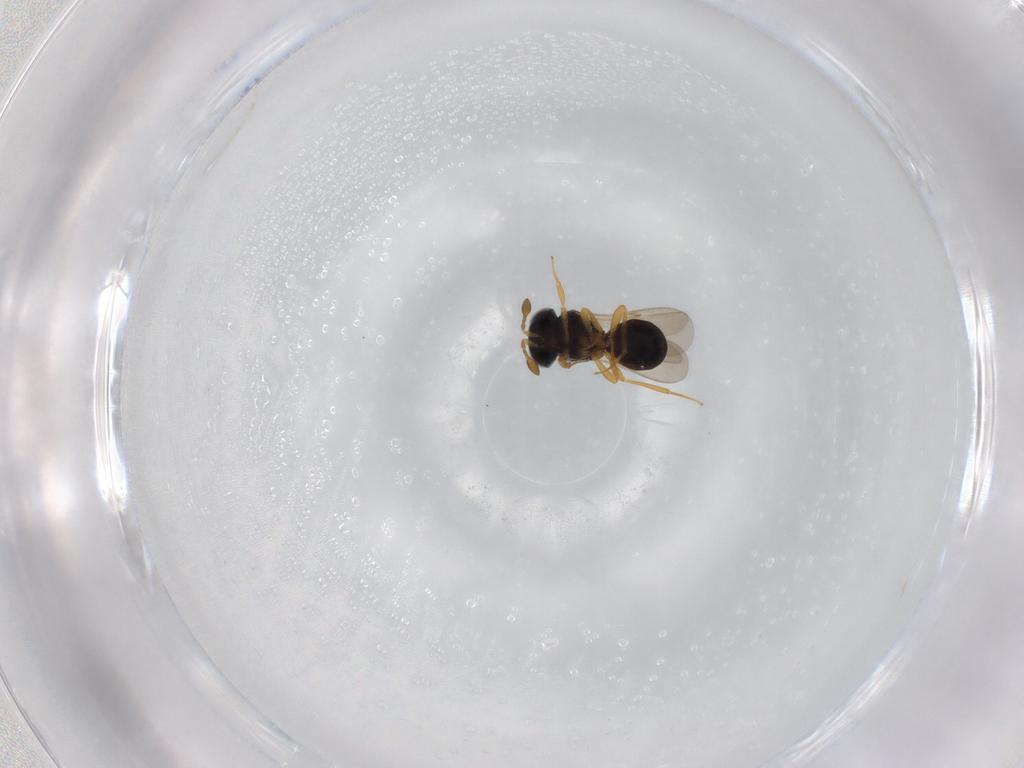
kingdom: Animalia
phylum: Arthropoda
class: Insecta
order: Hymenoptera
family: Scelionidae
